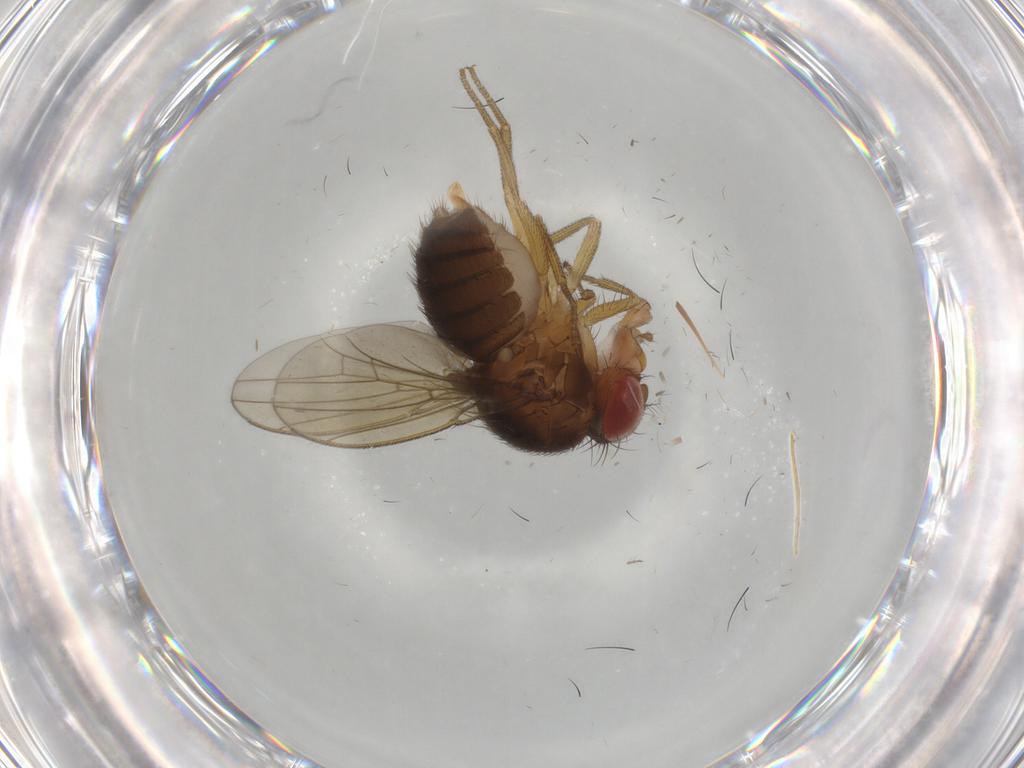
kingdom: Animalia
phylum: Arthropoda
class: Insecta
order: Diptera
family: Drosophilidae
